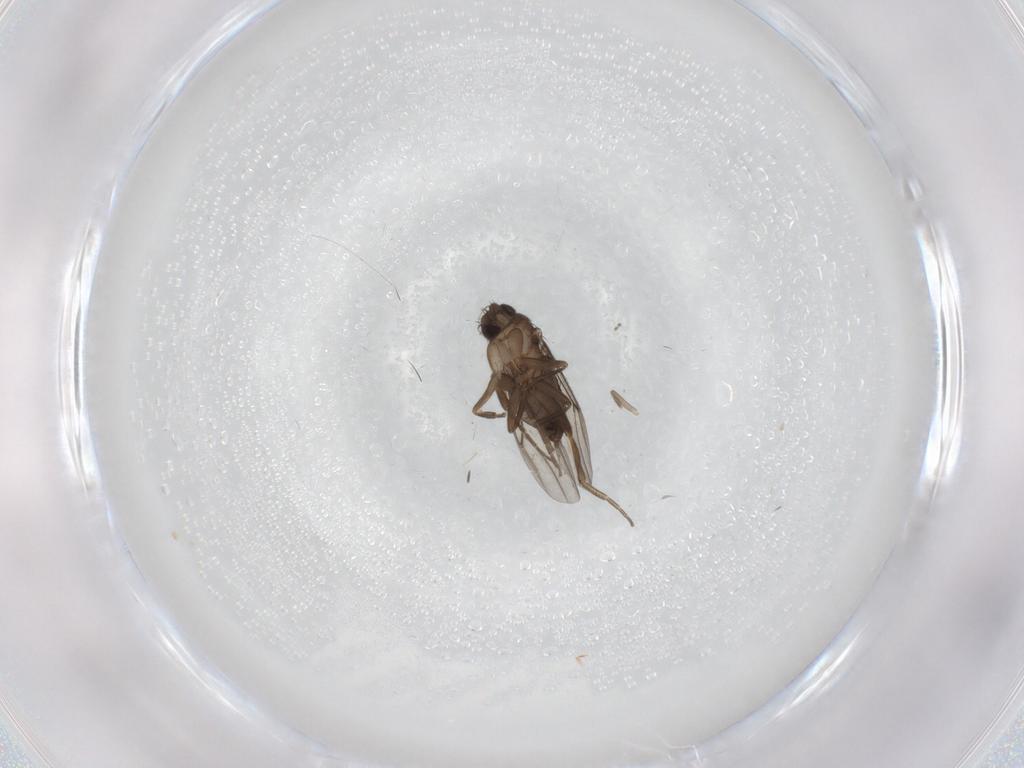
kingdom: Animalia
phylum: Arthropoda
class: Insecta
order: Diptera
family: Phoridae
